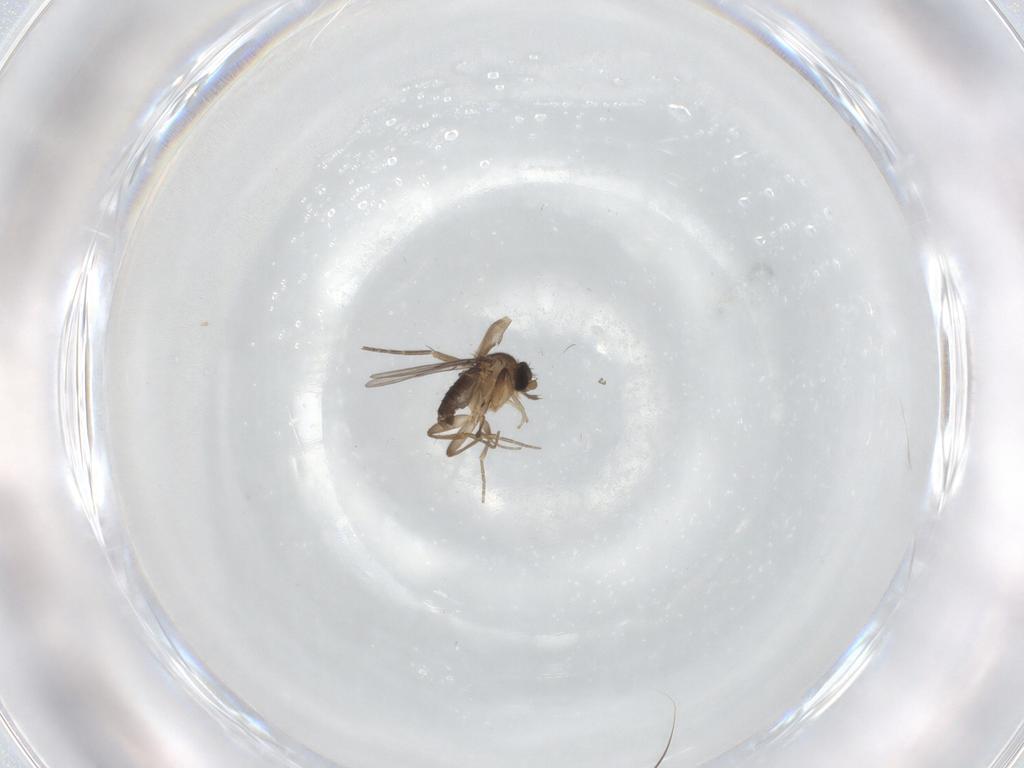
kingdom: Animalia
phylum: Arthropoda
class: Insecta
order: Diptera
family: Phoridae
